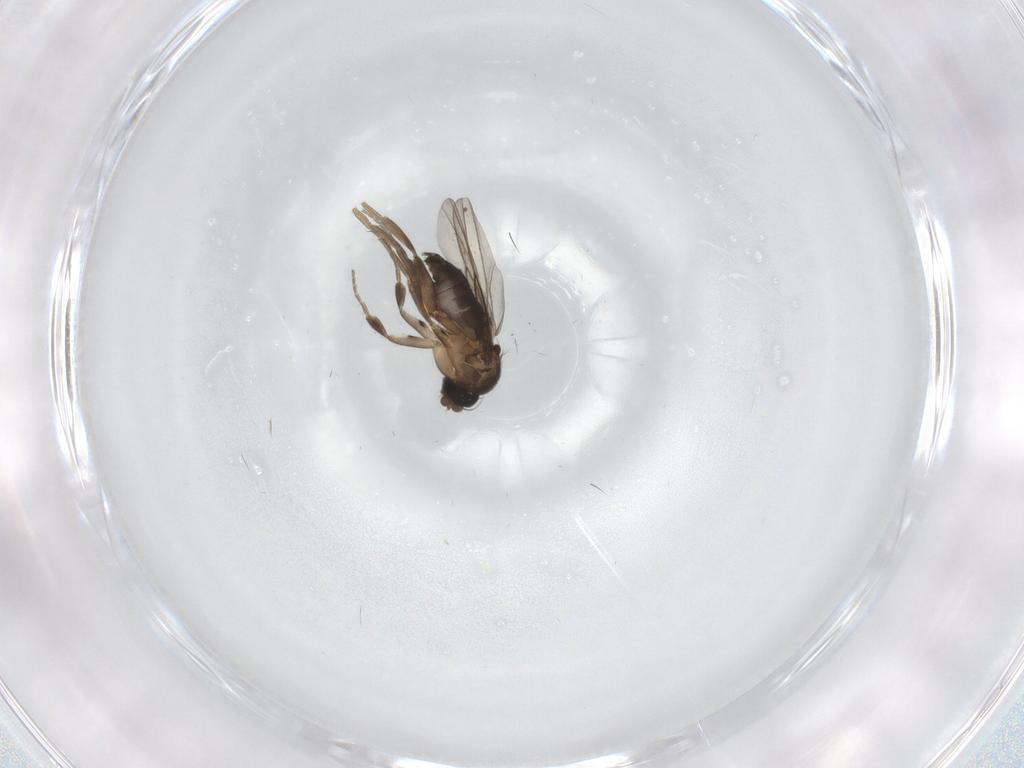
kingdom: Animalia
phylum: Arthropoda
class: Insecta
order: Diptera
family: Phoridae
